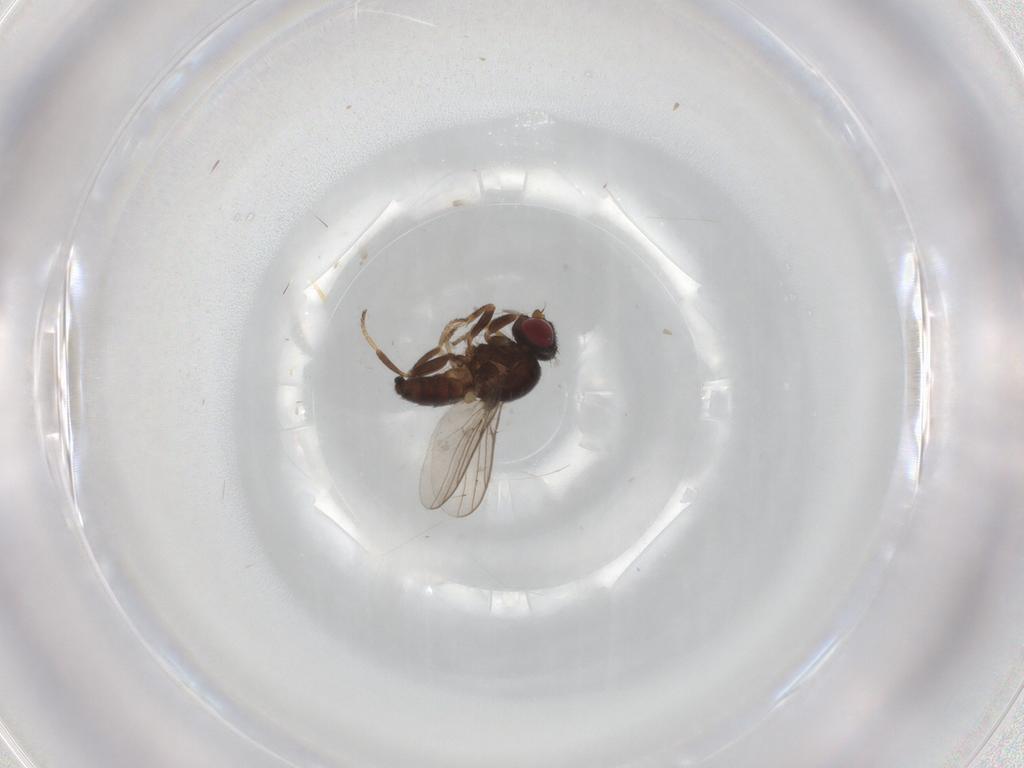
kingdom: Animalia
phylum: Arthropoda
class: Insecta
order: Diptera
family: Chloropidae
